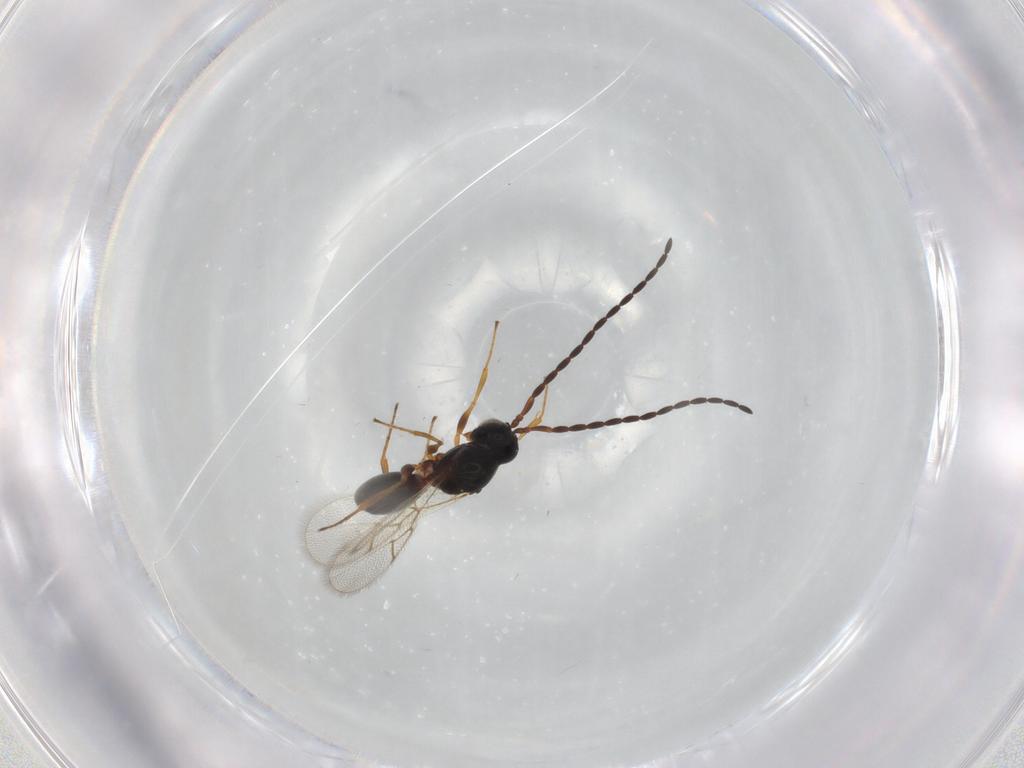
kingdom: Animalia
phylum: Arthropoda
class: Insecta
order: Hymenoptera
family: Figitidae
